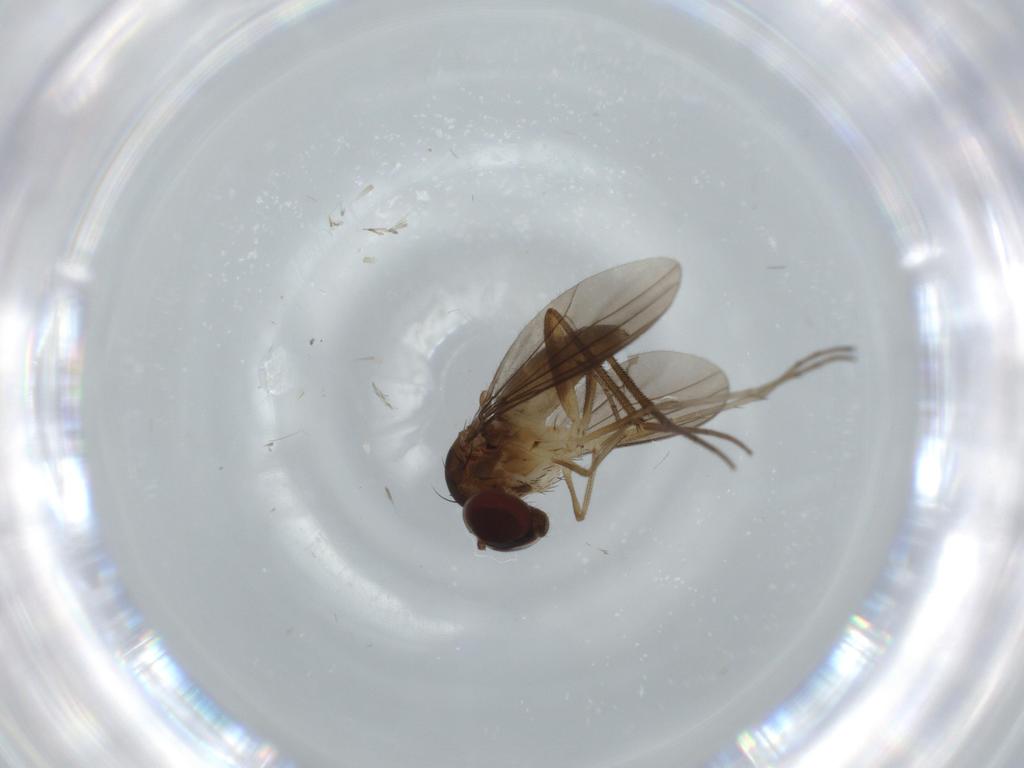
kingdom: Animalia
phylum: Arthropoda
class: Insecta
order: Diptera
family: Dolichopodidae
